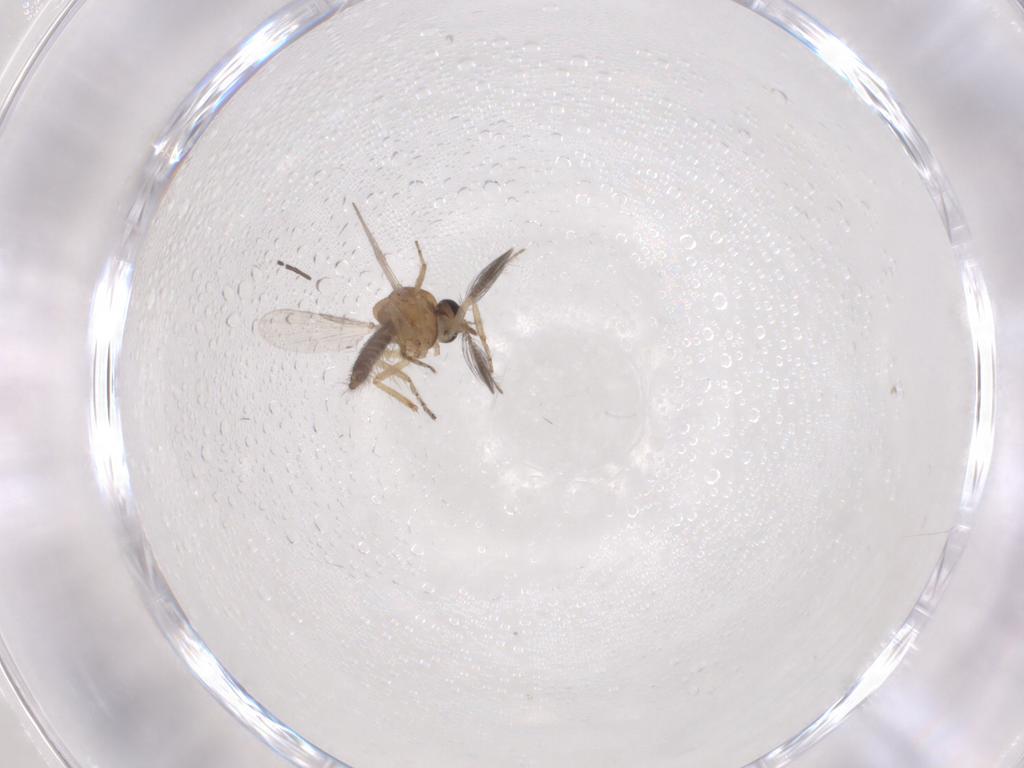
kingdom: Animalia
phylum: Arthropoda
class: Insecta
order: Diptera
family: Ceratopogonidae
